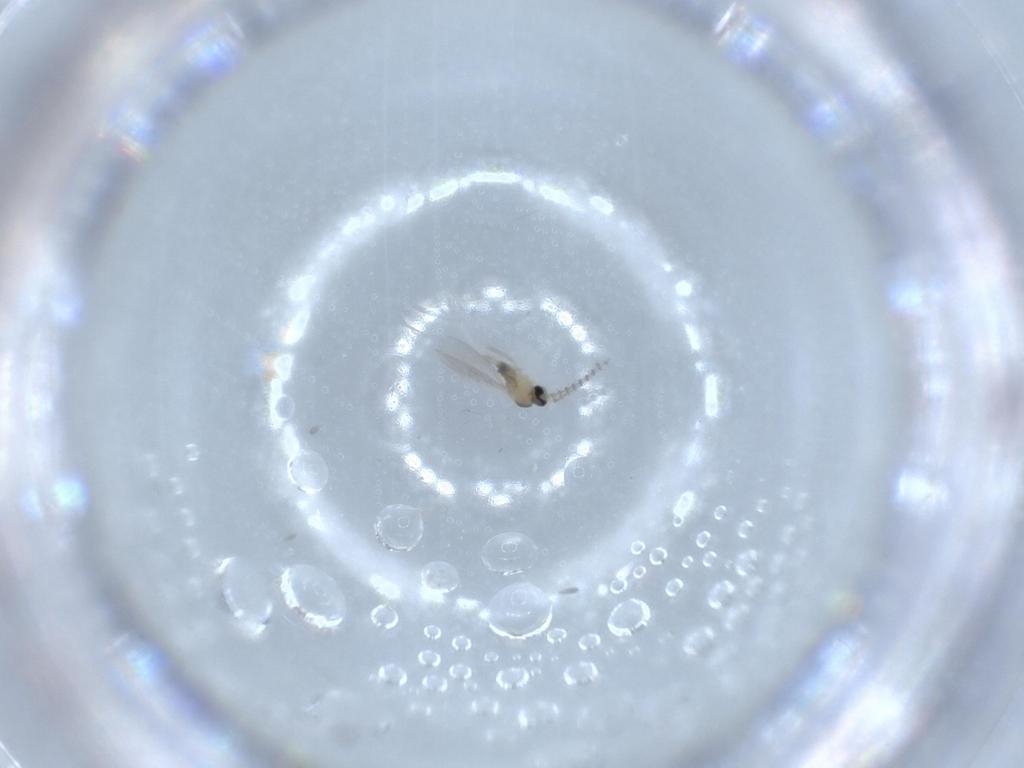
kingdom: Animalia
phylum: Arthropoda
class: Insecta
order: Diptera
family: Cecidomyiidae
